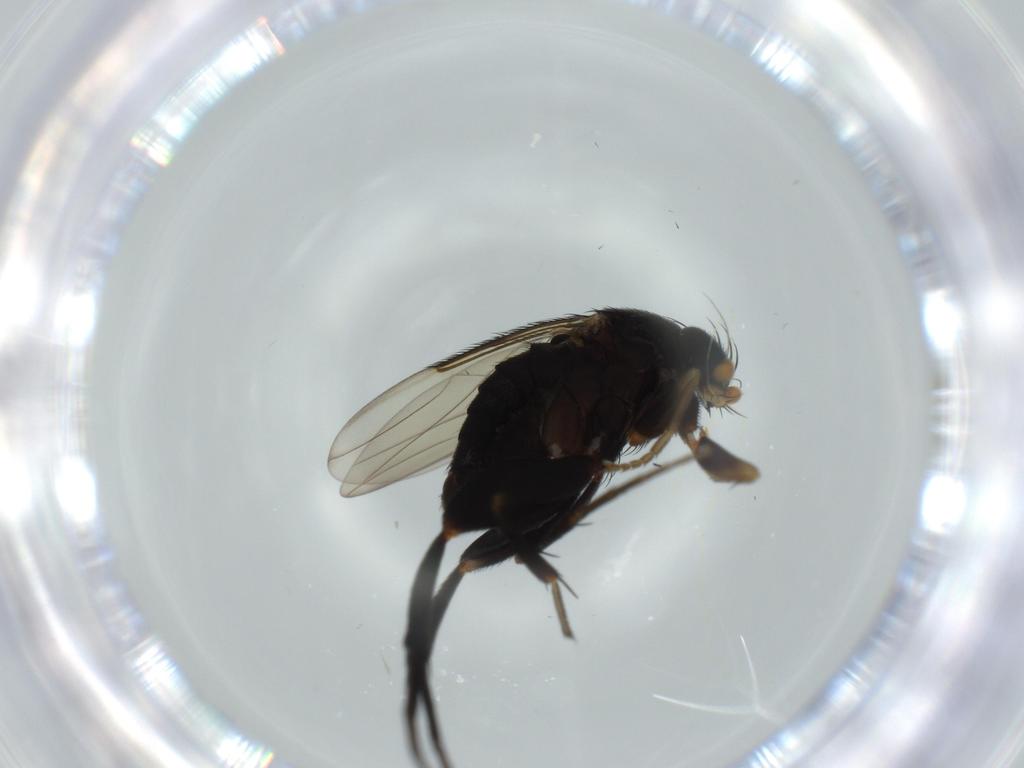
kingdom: Animalia
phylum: Arthropoda
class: Insecta
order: Diptera
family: Phoridae
